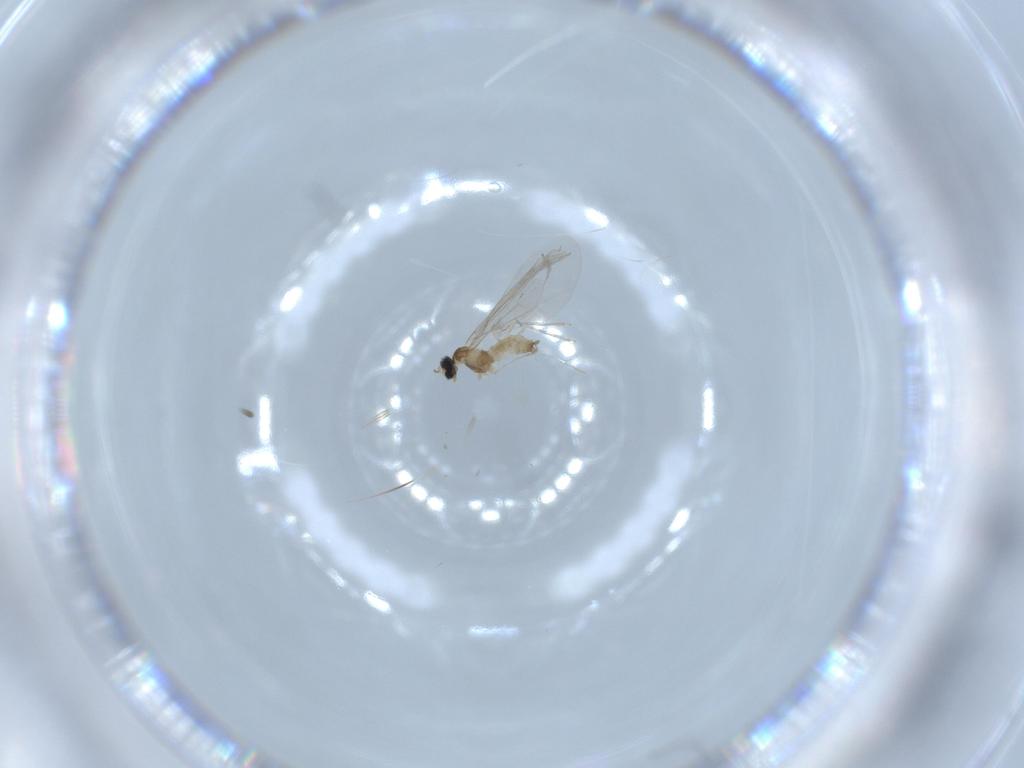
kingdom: Animalia
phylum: Arthropoda
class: Insecta
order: Diptera
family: Cecidomyiidae
